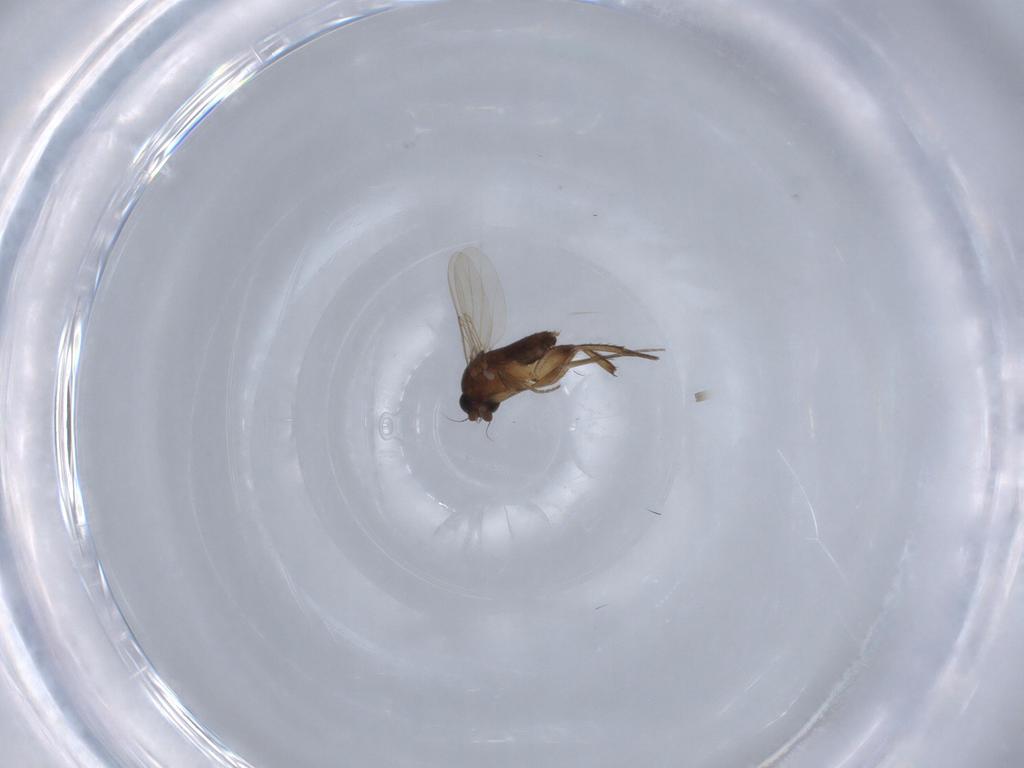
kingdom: Animalia
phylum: Arthropoda
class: Insecta
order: Diptera
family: Phoridae
